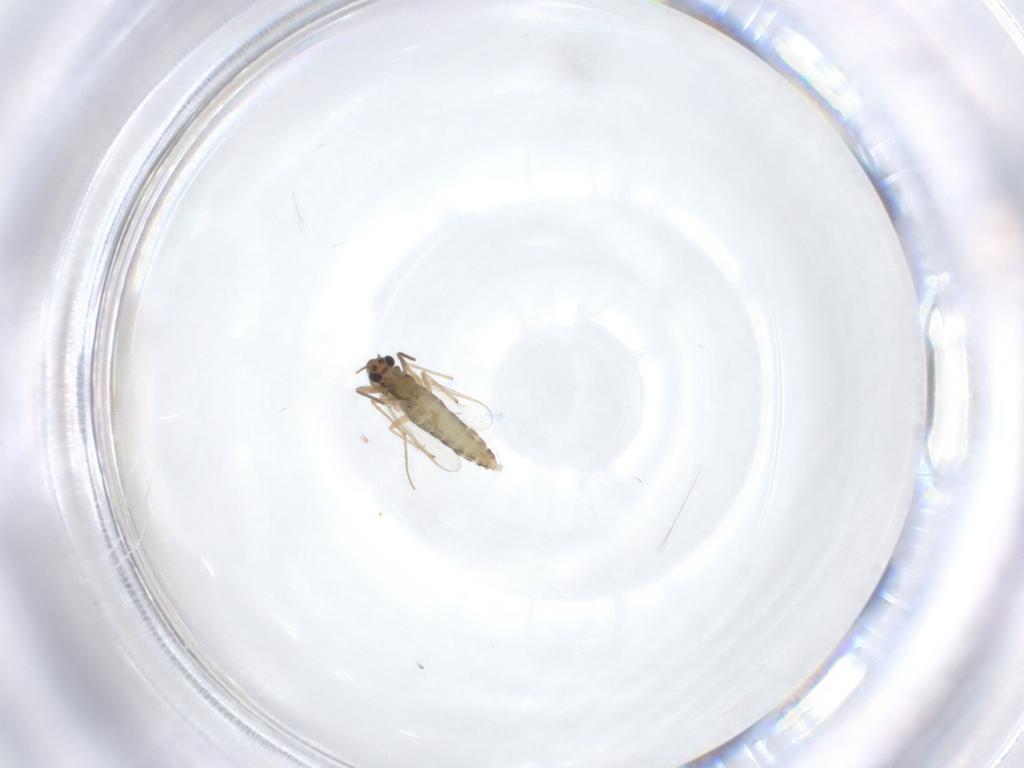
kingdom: Animalia
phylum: Arthropoda
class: Insecta
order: Diptera
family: Chironomidae
